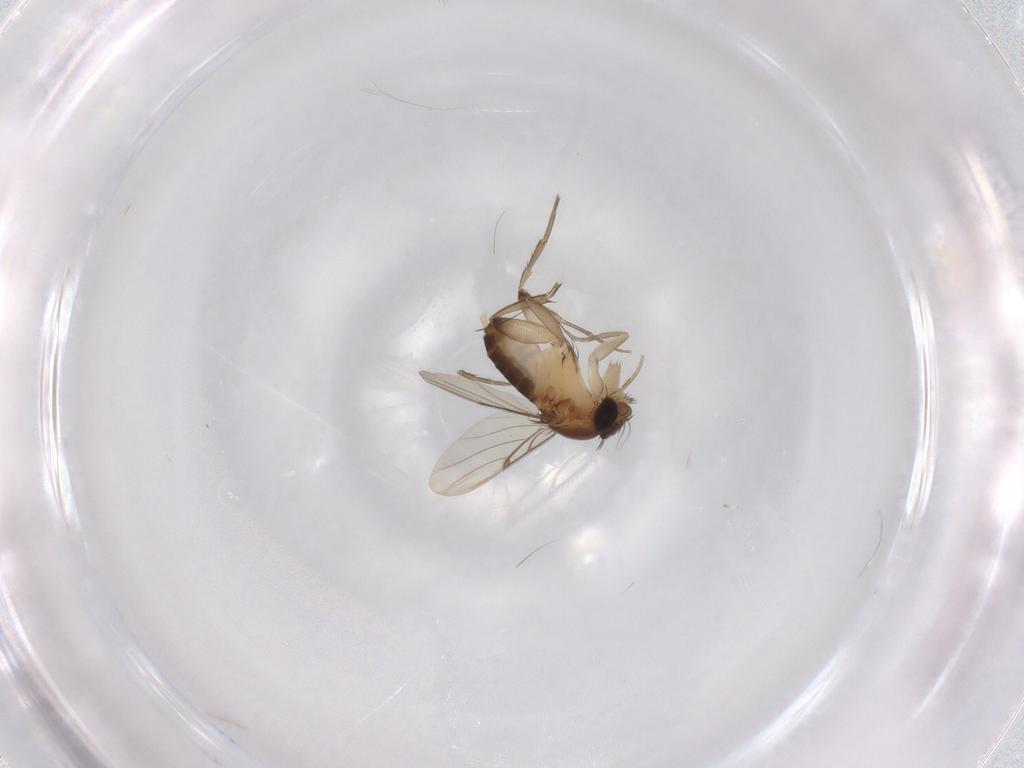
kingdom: Animalia
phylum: Arthropoda
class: Insecta
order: Diptera
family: Phoridae
